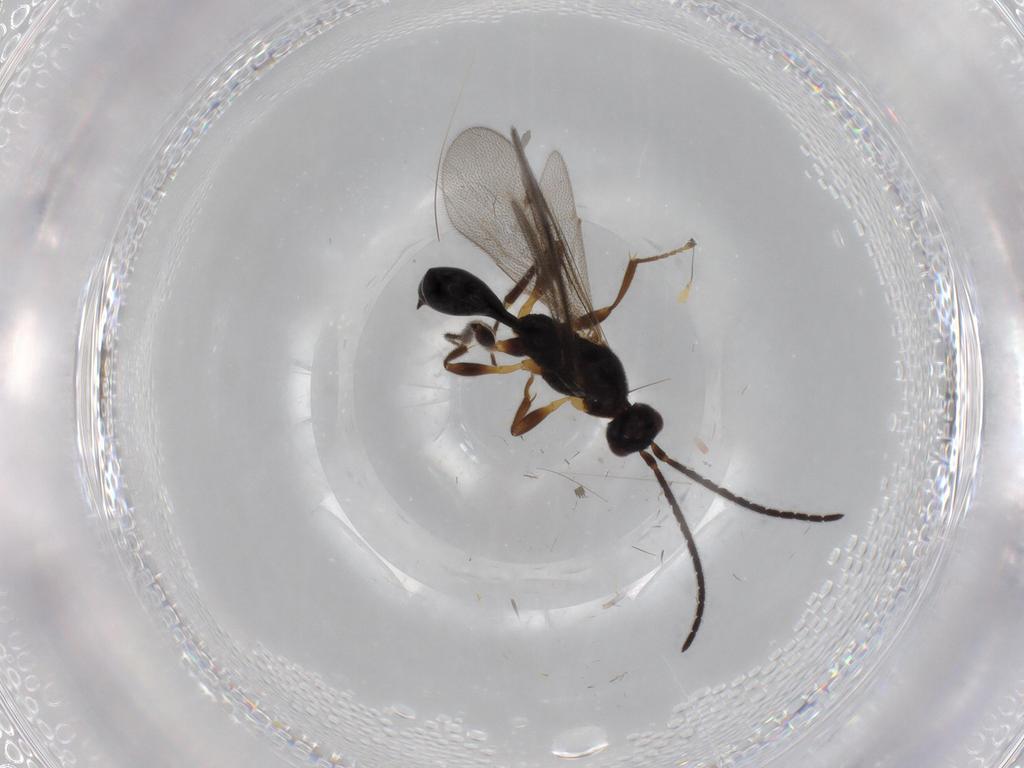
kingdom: Animalia
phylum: Arthropoda
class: Insecta
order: Hymenoptera
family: Proctotrupidae
